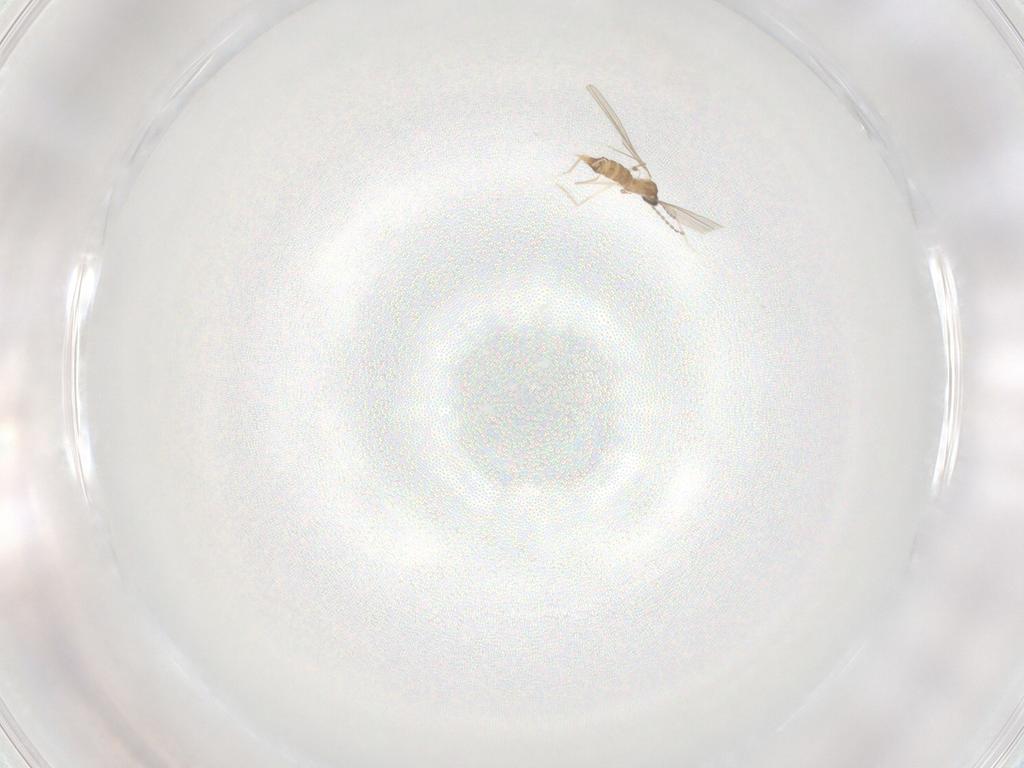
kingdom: Animalia
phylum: Arthropoda
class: Insecta
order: Diptera
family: Cecidomyiidae
